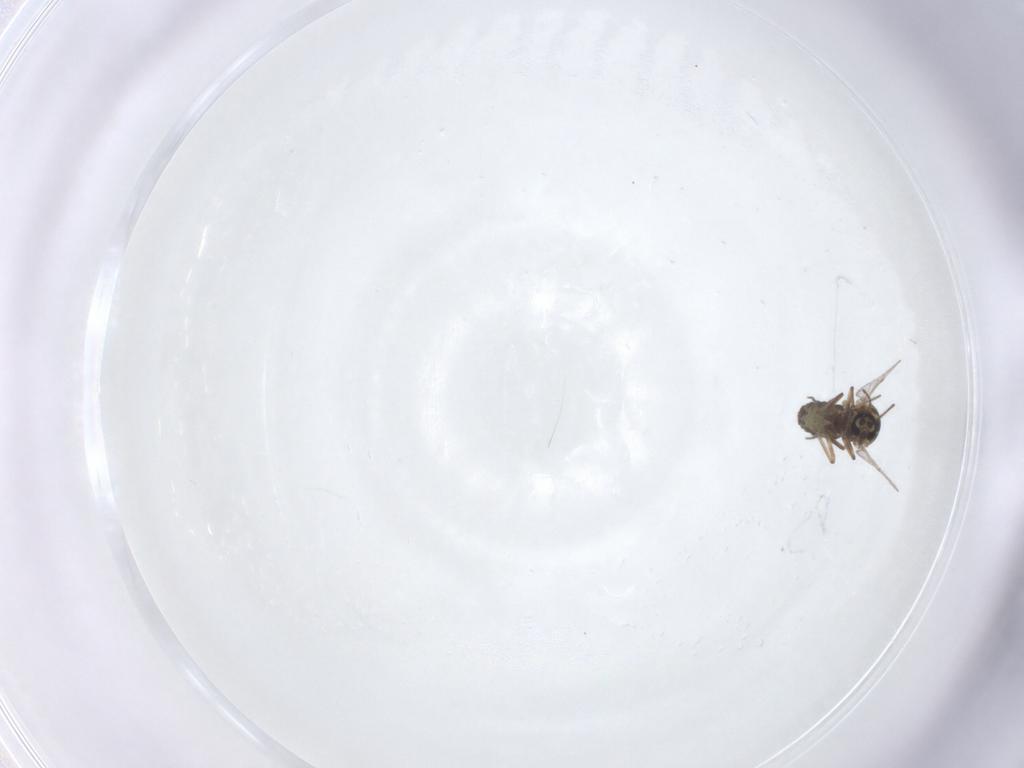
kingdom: Animalia
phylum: Arthropoda
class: Insecta
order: Diptera
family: Ceratopogonidae
